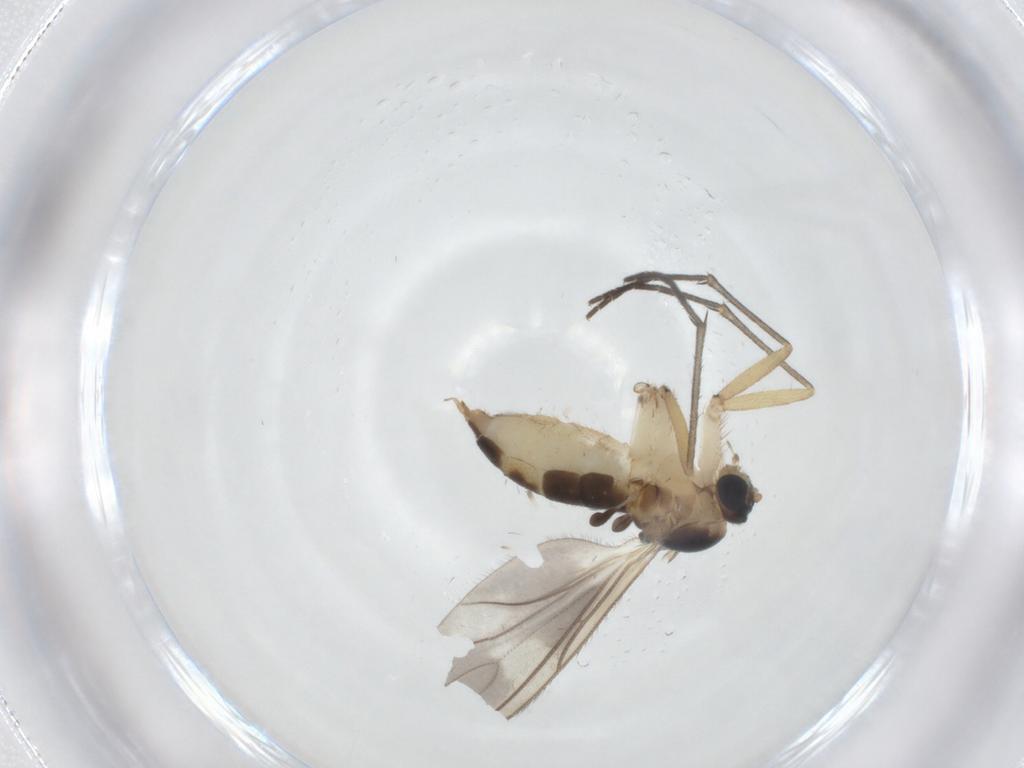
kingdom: Animalia
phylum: Arthropoda
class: Insecta
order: Diptera
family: Sciaridae
